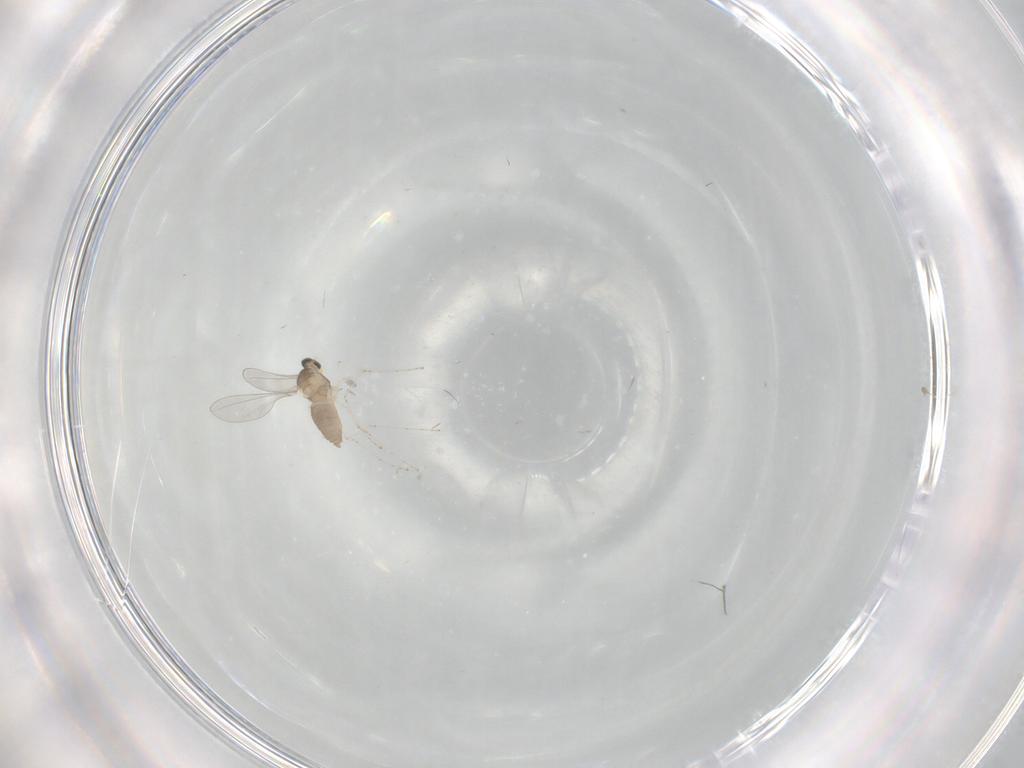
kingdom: Animalia
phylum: Arthropoda
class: Insecta
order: Diptera
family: Cecidomyiidae
